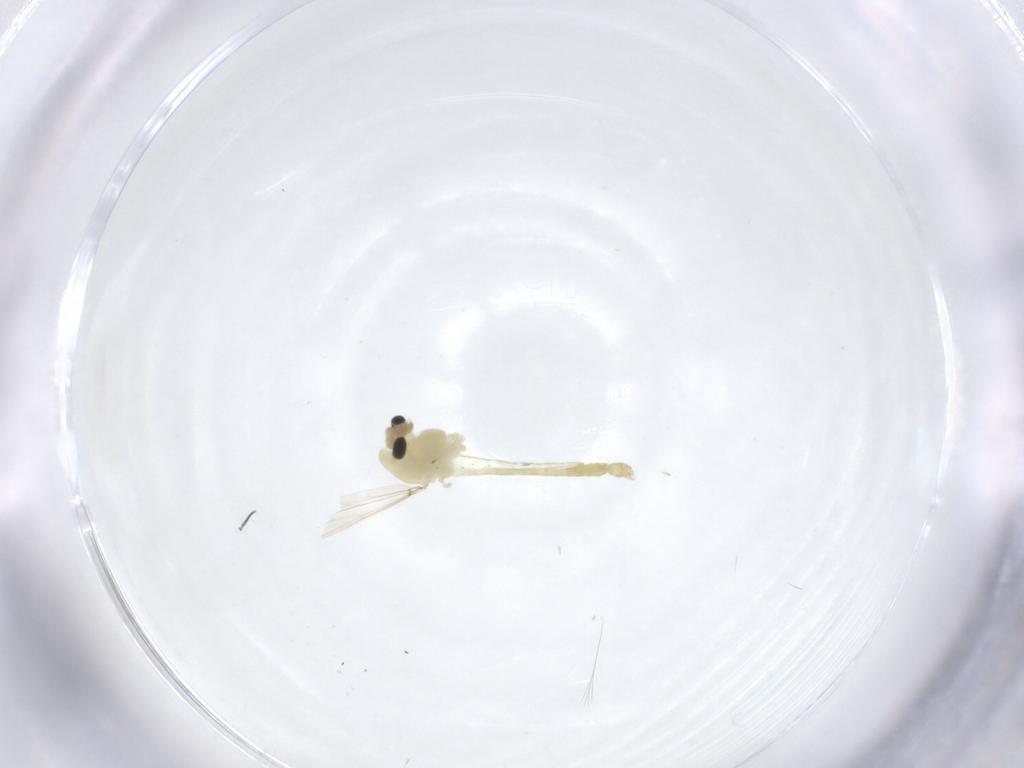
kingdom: Animalia
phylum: Arthropoda
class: Insecta
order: Diptera
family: Chironomidae
